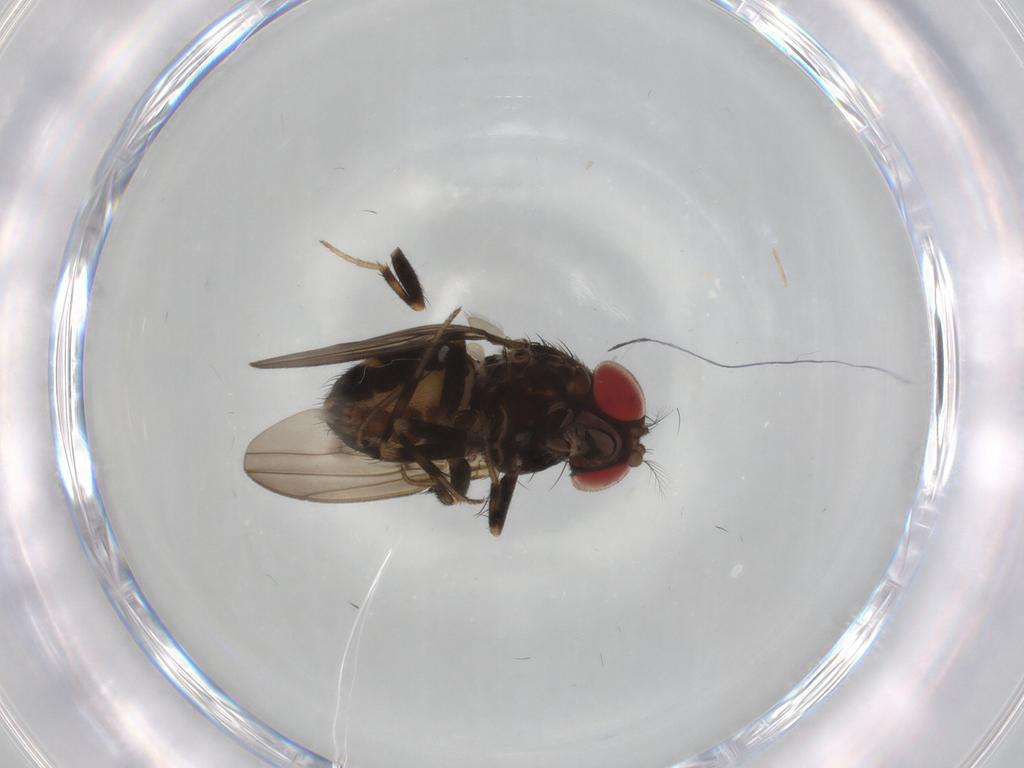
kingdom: Animalia
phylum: Arthropoda
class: Insecta
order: Diptera
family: Drosophilidae
